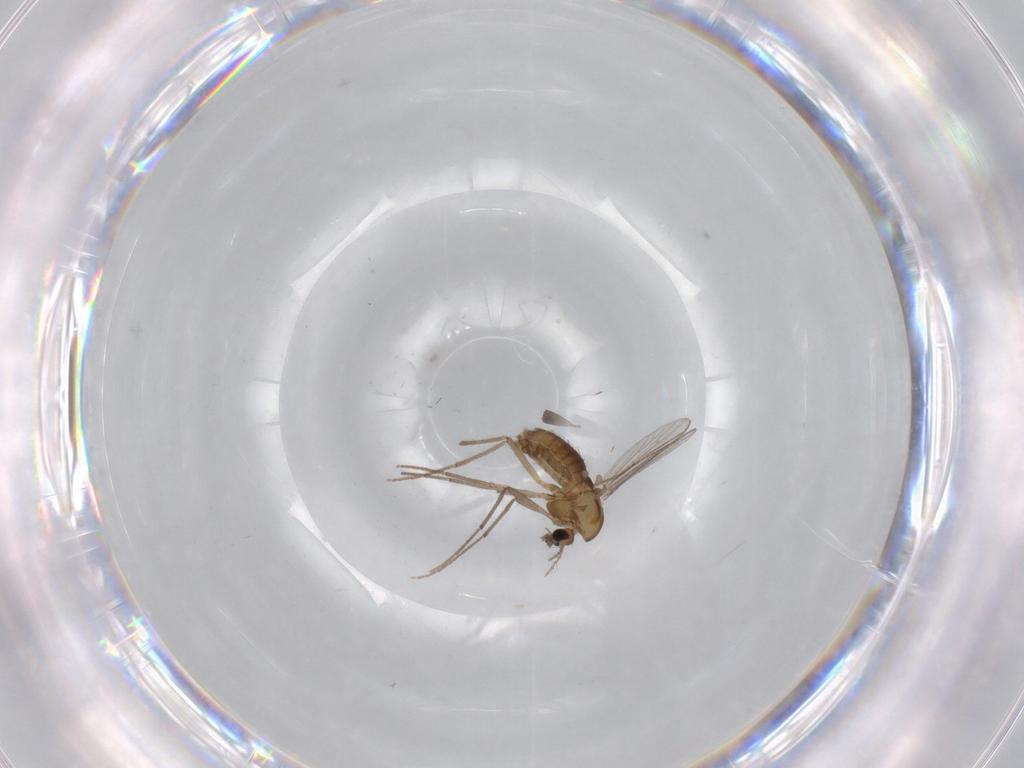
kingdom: Animalia
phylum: Arthropoda
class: Insecta
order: Diptera
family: Chironomidae
